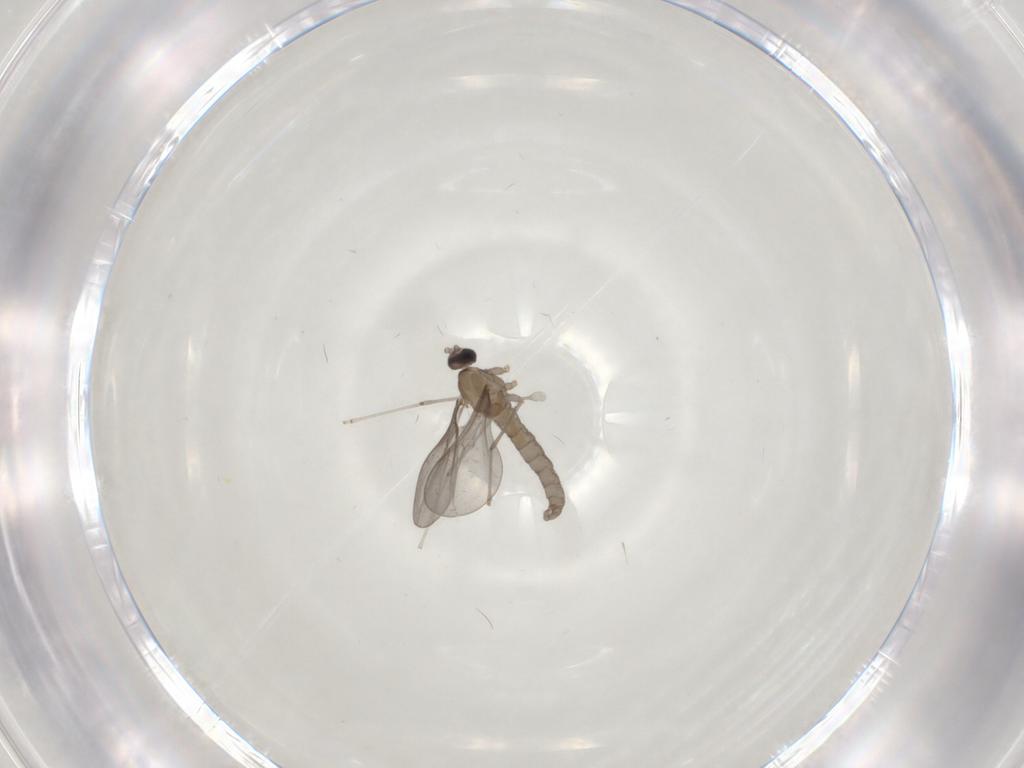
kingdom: Animalia
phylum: Arthropoda
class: Insecta
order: Diptera
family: Cecidomyiidae
